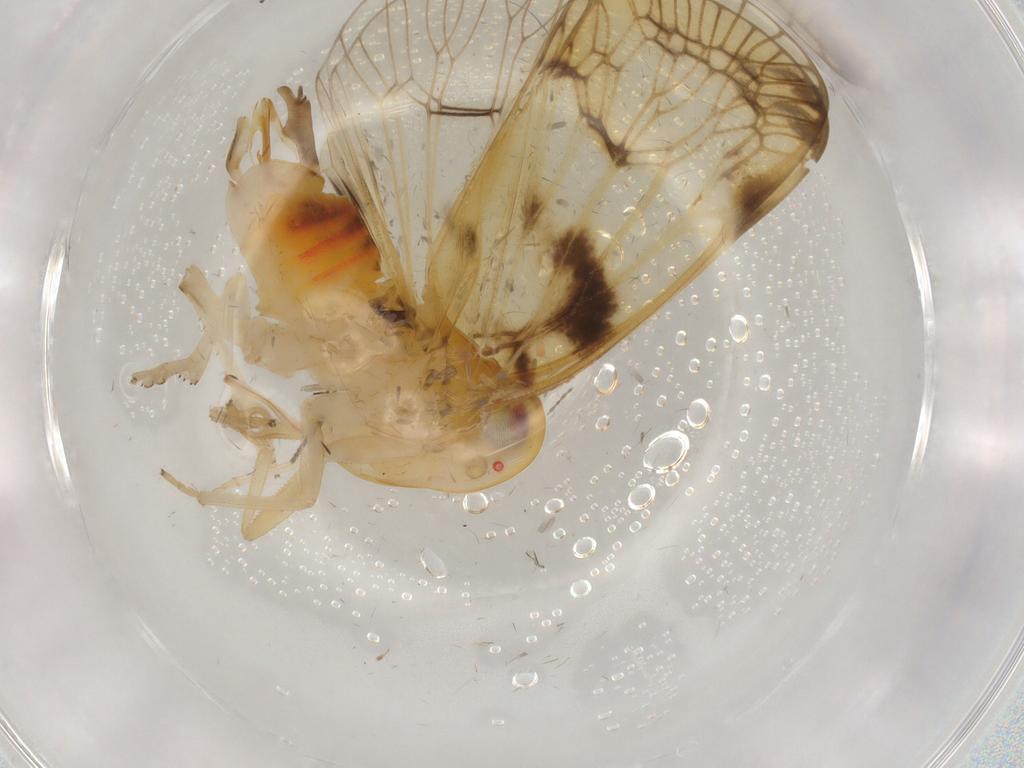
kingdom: Animalia
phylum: Arthropoda
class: Insecta
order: Hemiptera
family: Cixiidae
